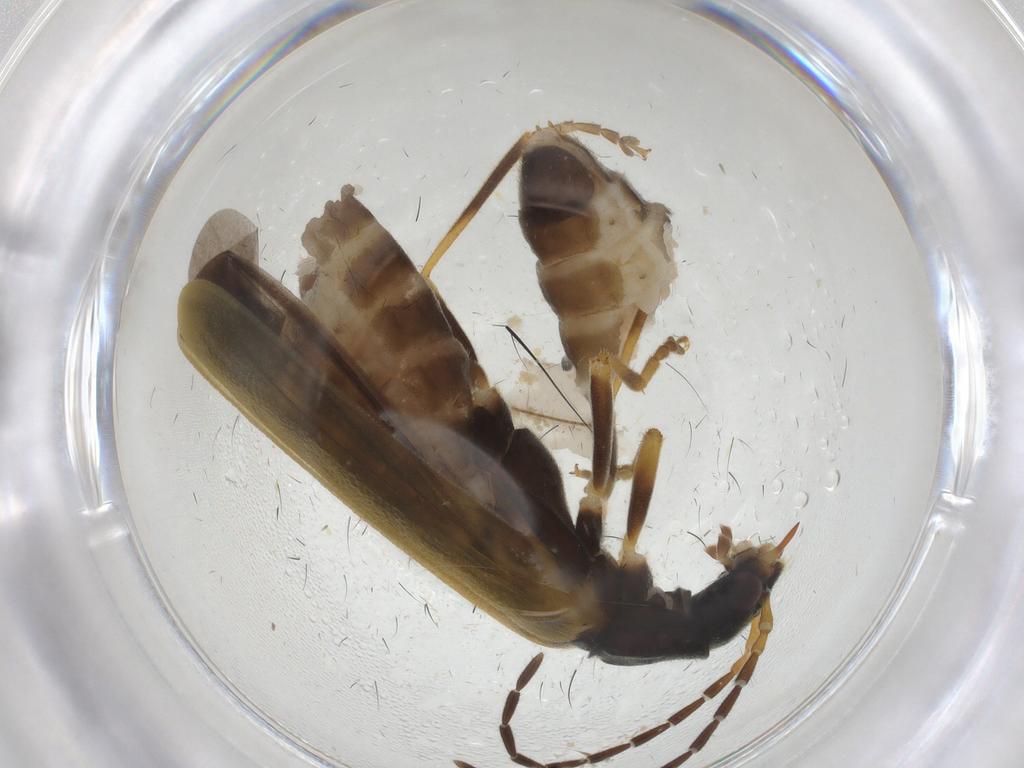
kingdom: Animalia
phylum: Arthropoda
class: Insecta
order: Coleoptera
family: Cantharidae
